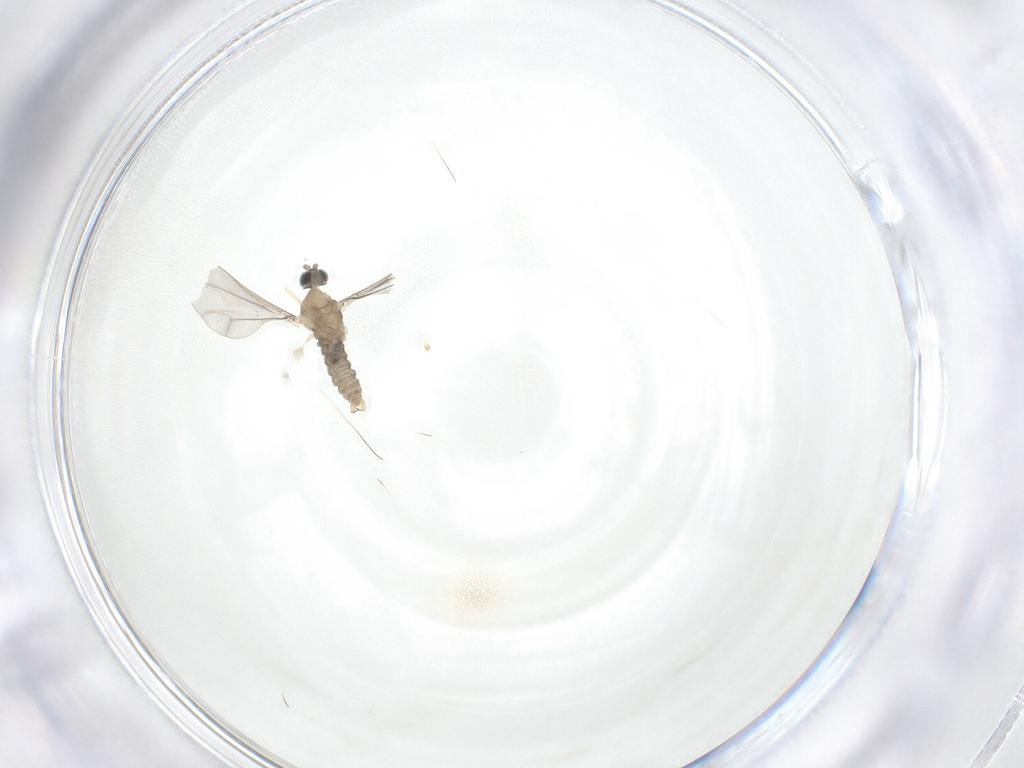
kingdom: Animalia
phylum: Arthropoda
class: Insecta
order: Diptera
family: Cecidomyiidae
